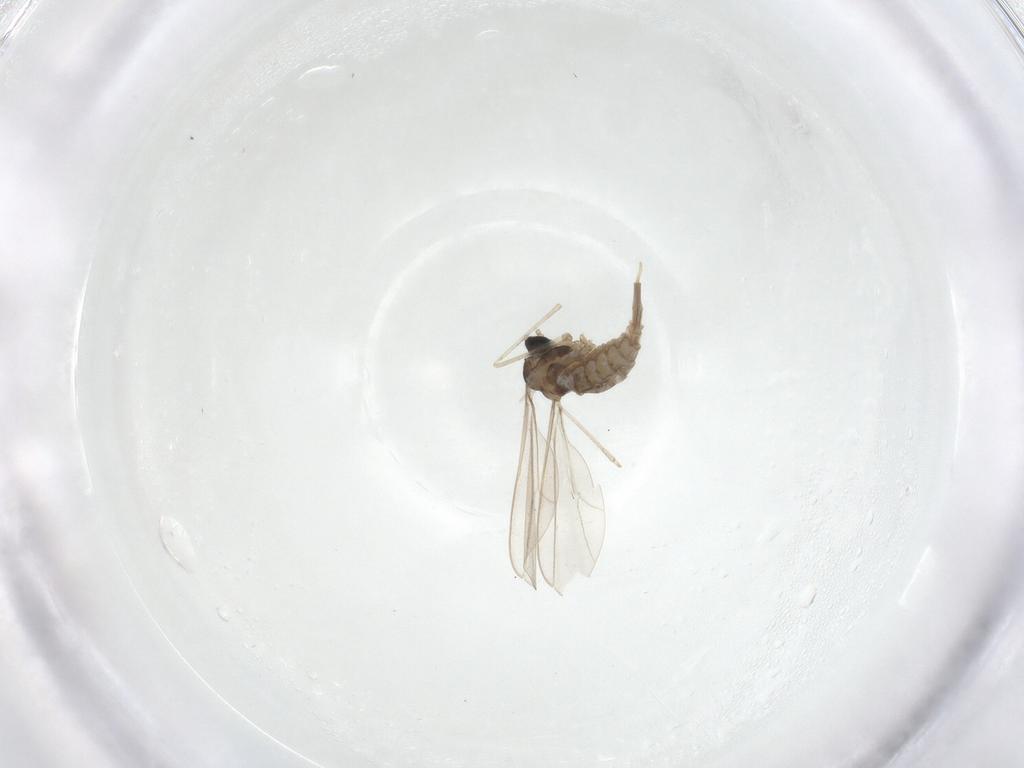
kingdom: Animalia
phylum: Arthropoda
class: Insecta
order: Diptera
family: Cecidomyiidae
